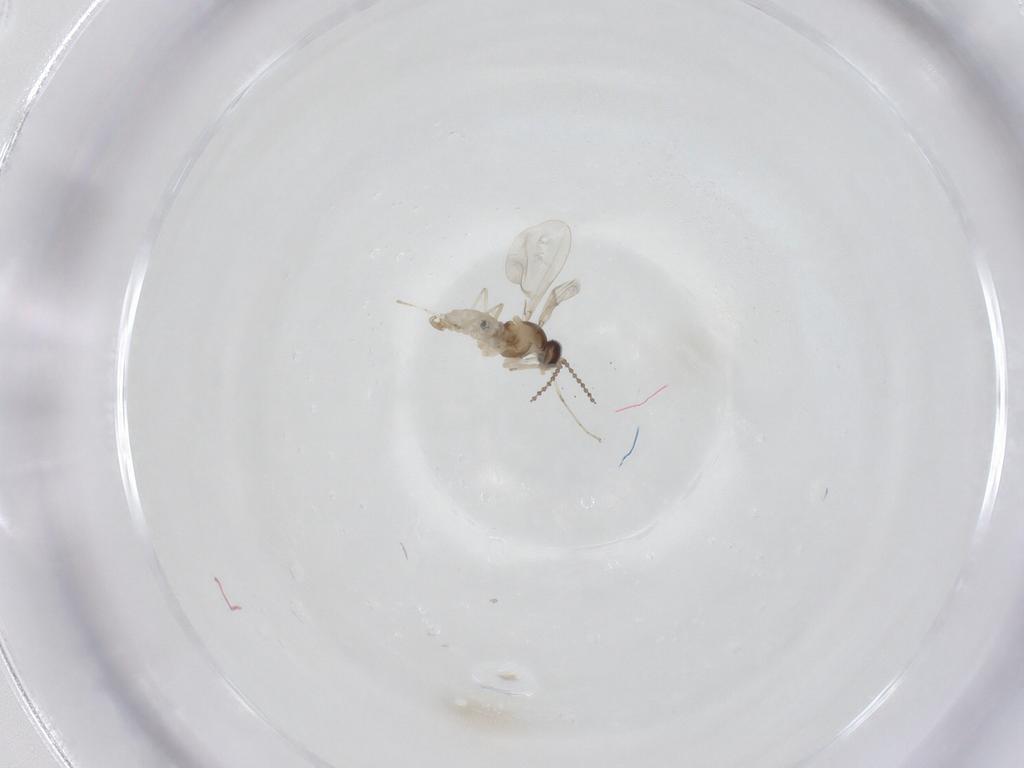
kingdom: Animalia
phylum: Arthropoda
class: Insecta
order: Diptera
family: Cecidomyiidae
